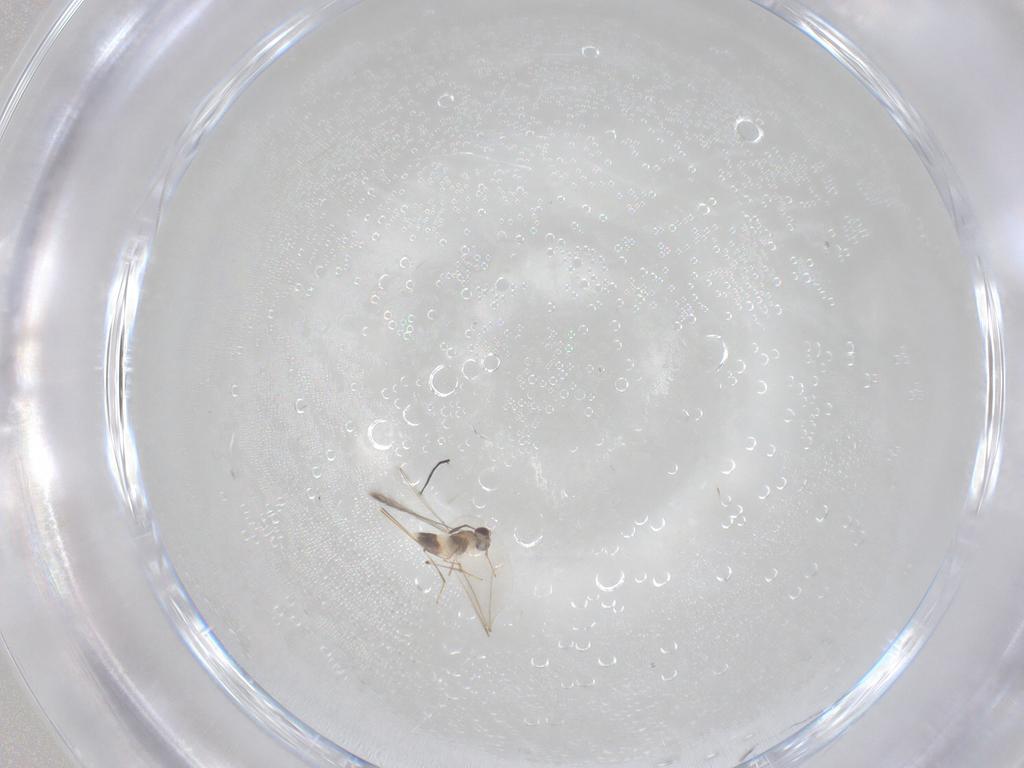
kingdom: Animalia
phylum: Arthropoda
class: Insecta
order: Hymenoptera
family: Mymaridae
